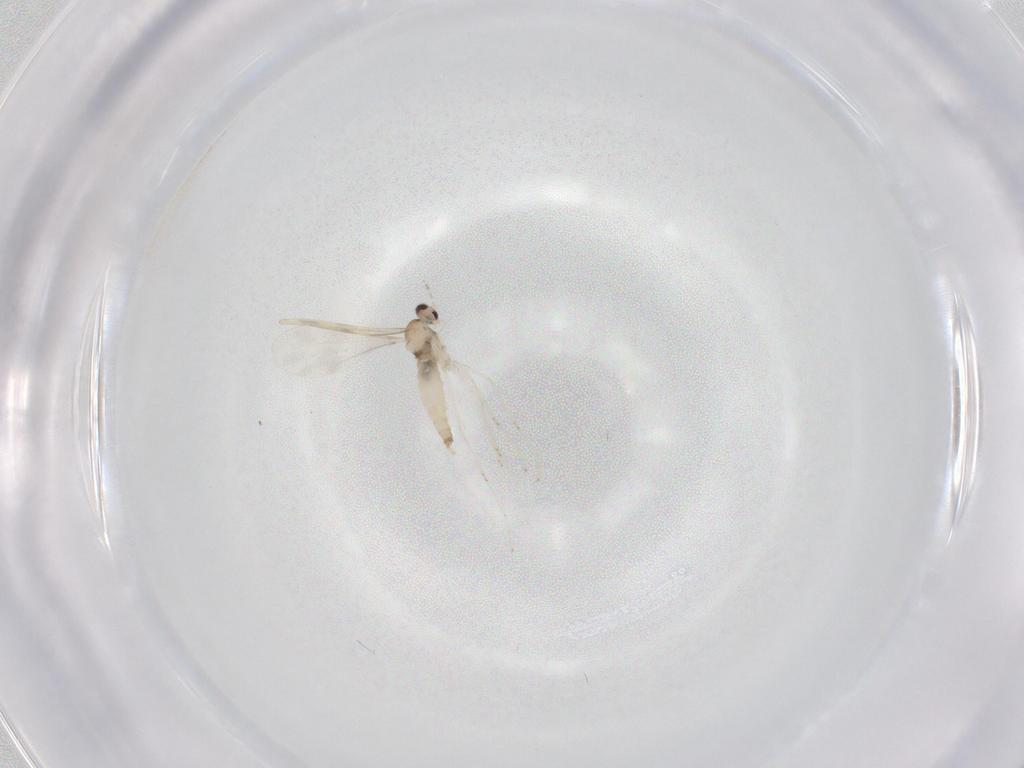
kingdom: Animalia
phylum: Arthropoda
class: Insecta
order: Diptera
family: Cecidomyiidae
